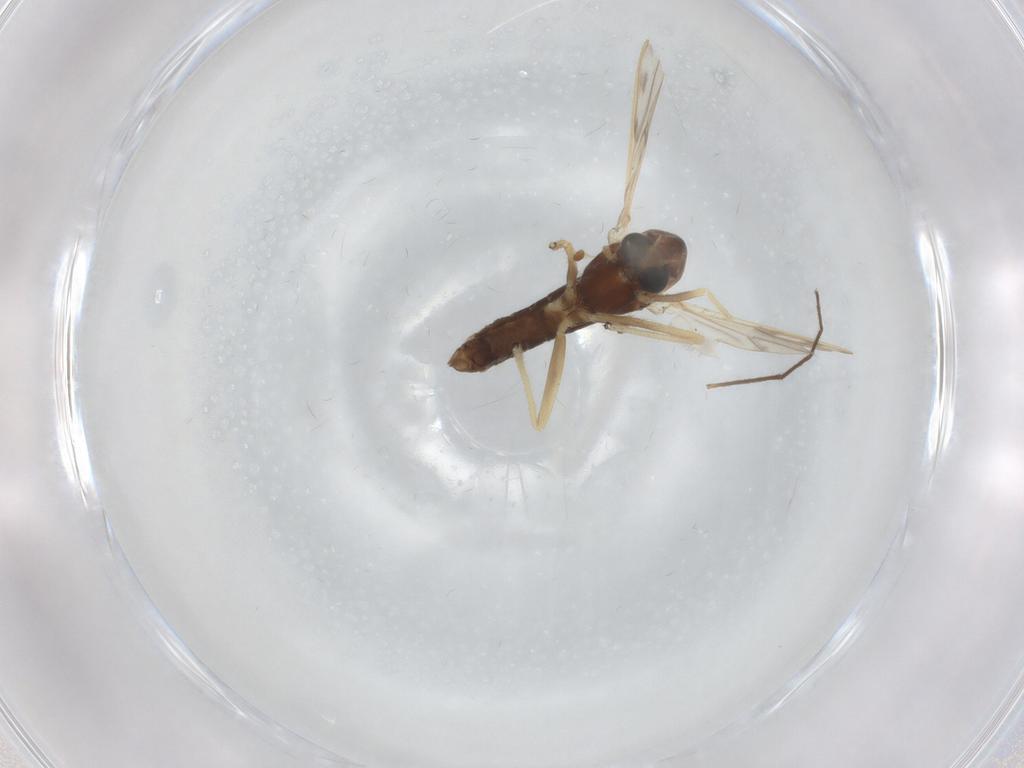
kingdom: Animalia
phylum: Arthropoda
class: Insecta
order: Diptera
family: Chironomidae
